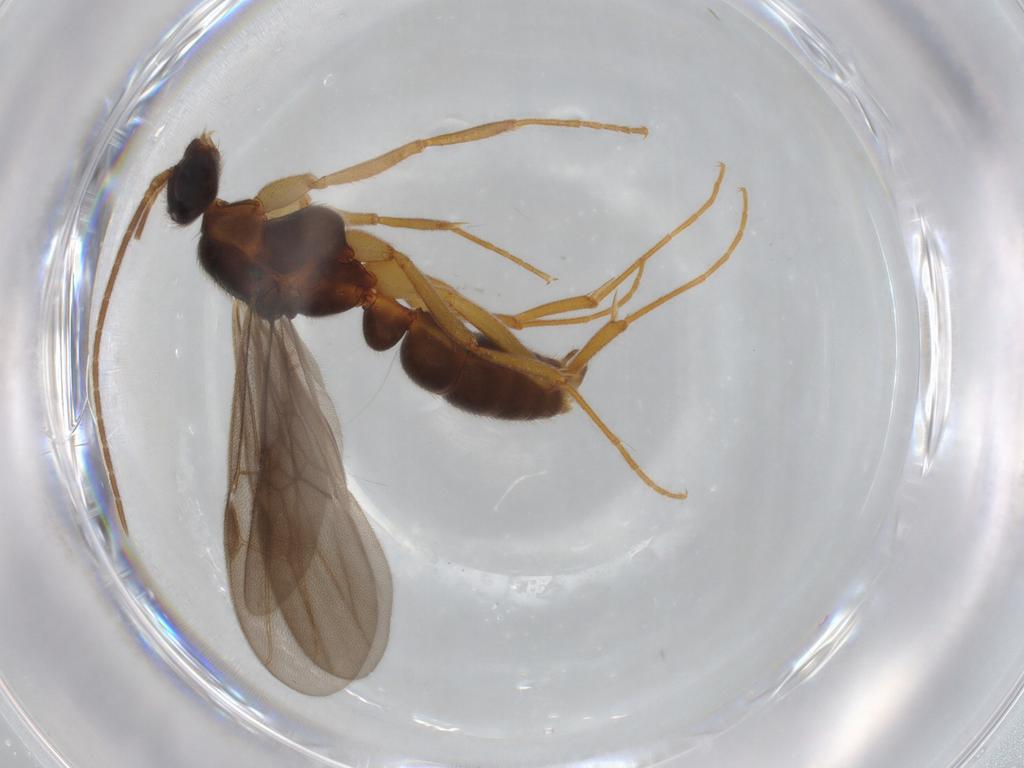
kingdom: Animalia
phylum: Arthropoda
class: Insecta
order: Hymenoptera
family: Formicidae
